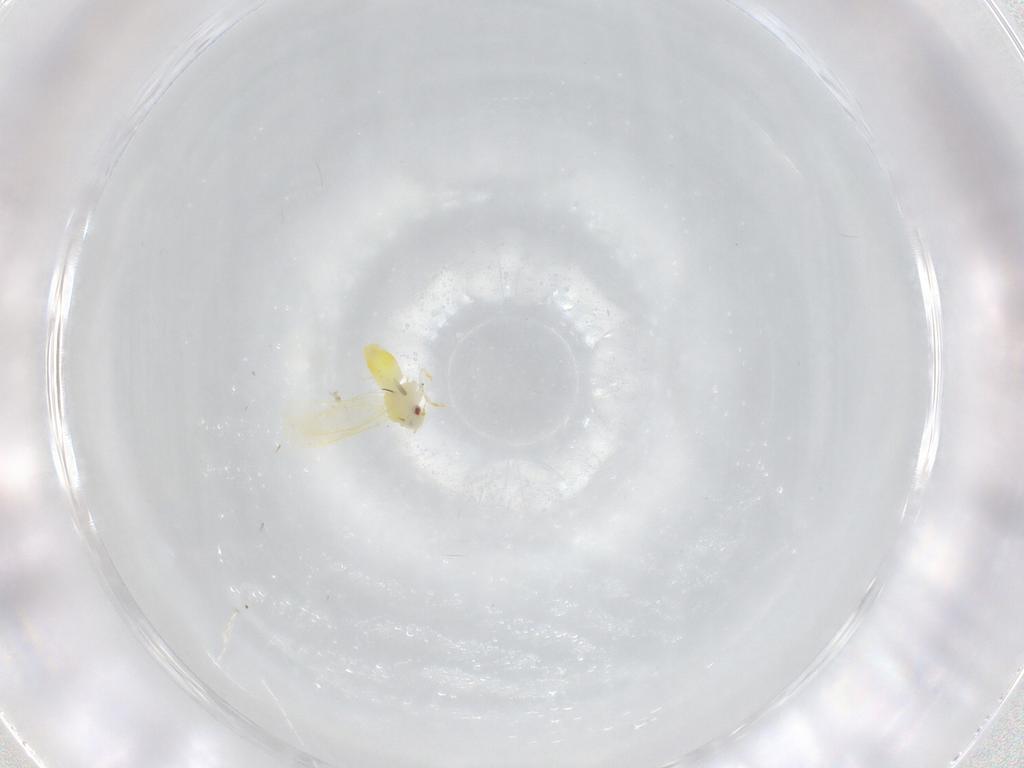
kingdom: Animalia
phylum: Arthropoda
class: Insecta
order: Hemiptera
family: Aleyrodidae
